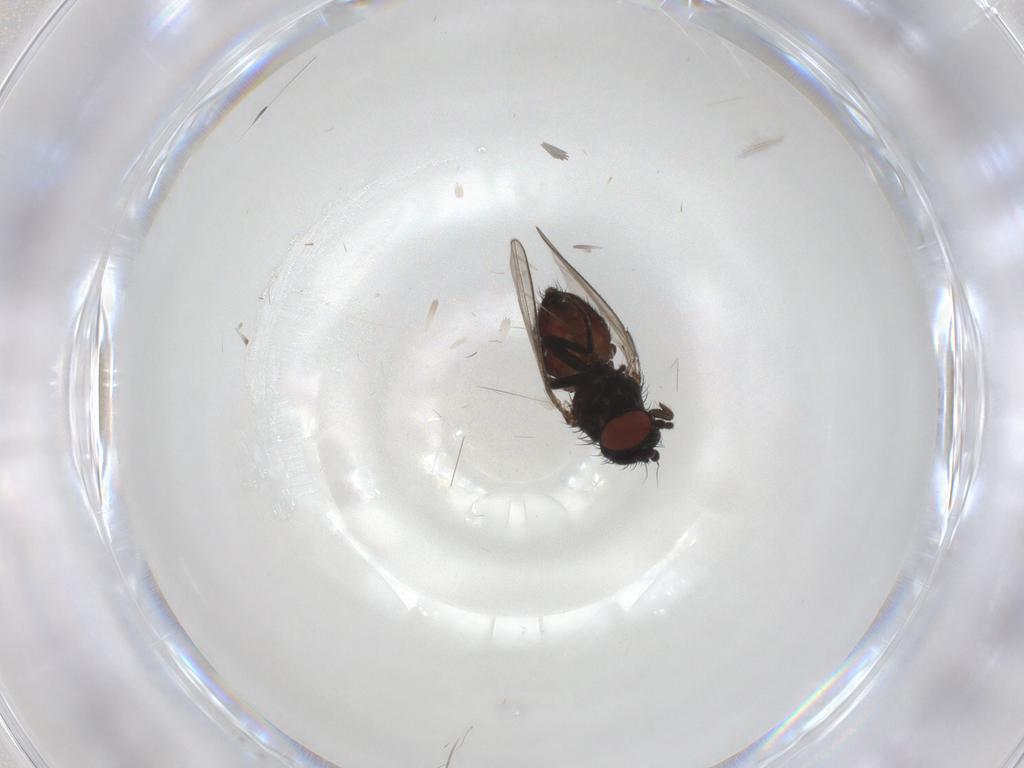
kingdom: Animalia
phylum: Arthropoda
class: Insecta
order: Diptera
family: Milichiidae
